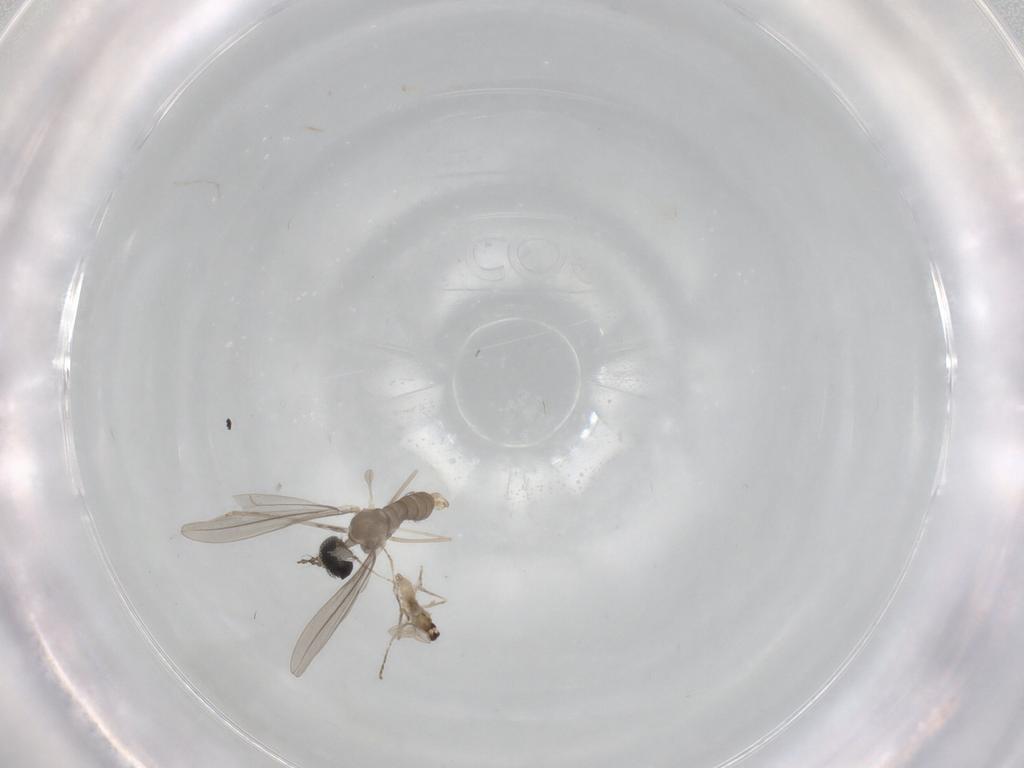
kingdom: Animalia
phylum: Arthropoda
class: Insecta
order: Diptera
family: Cecidomyiidae
